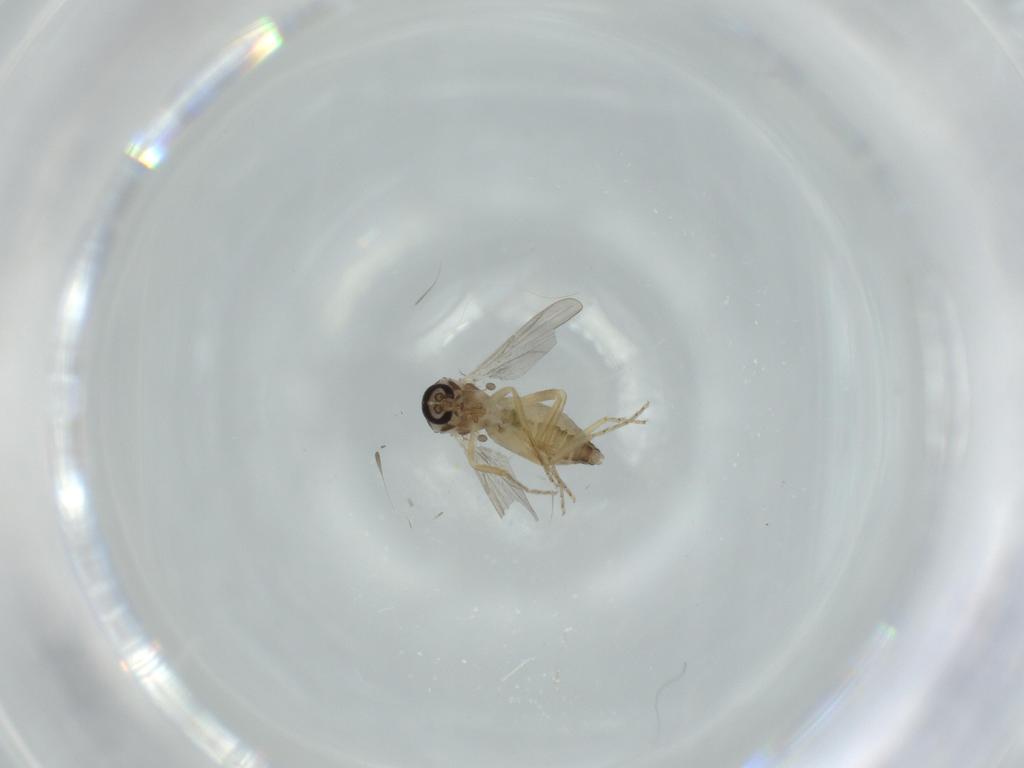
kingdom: Animalia
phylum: Arthropoda
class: Insecta
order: Diptera
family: Ceratopogonidae
